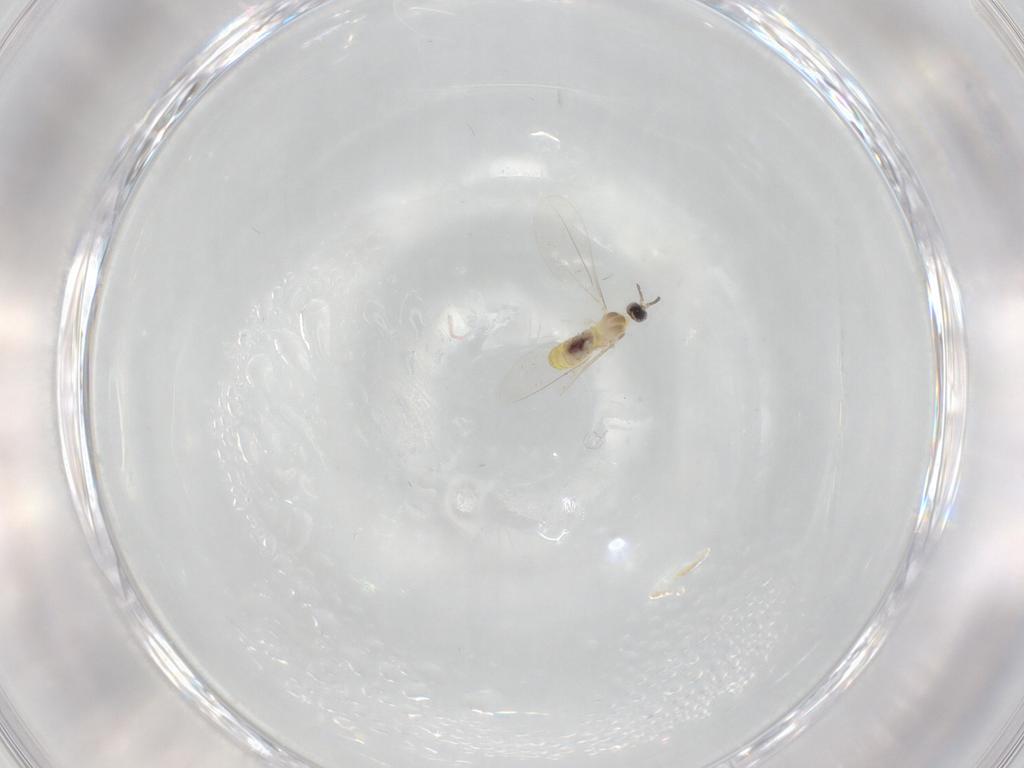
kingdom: Animalia
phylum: Arthropoda
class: Insecta
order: Diptera
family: Cecidomyiidae
